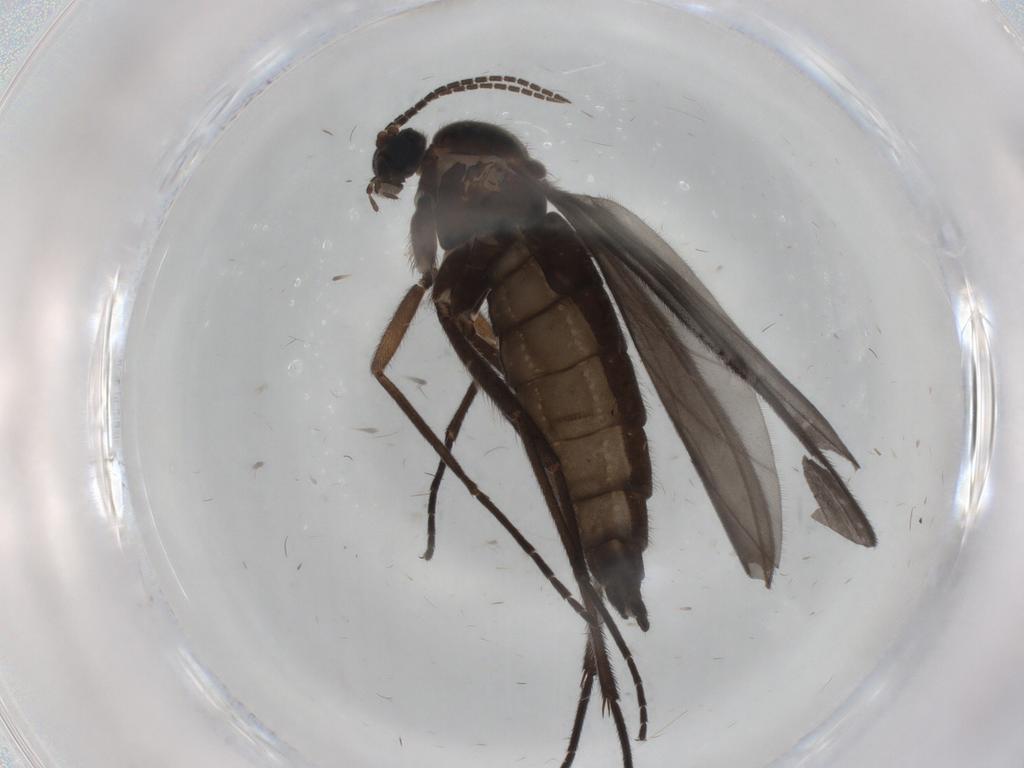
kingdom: Animalia
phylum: Arthropoda
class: Insecta
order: Diptera
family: Sciaridae
